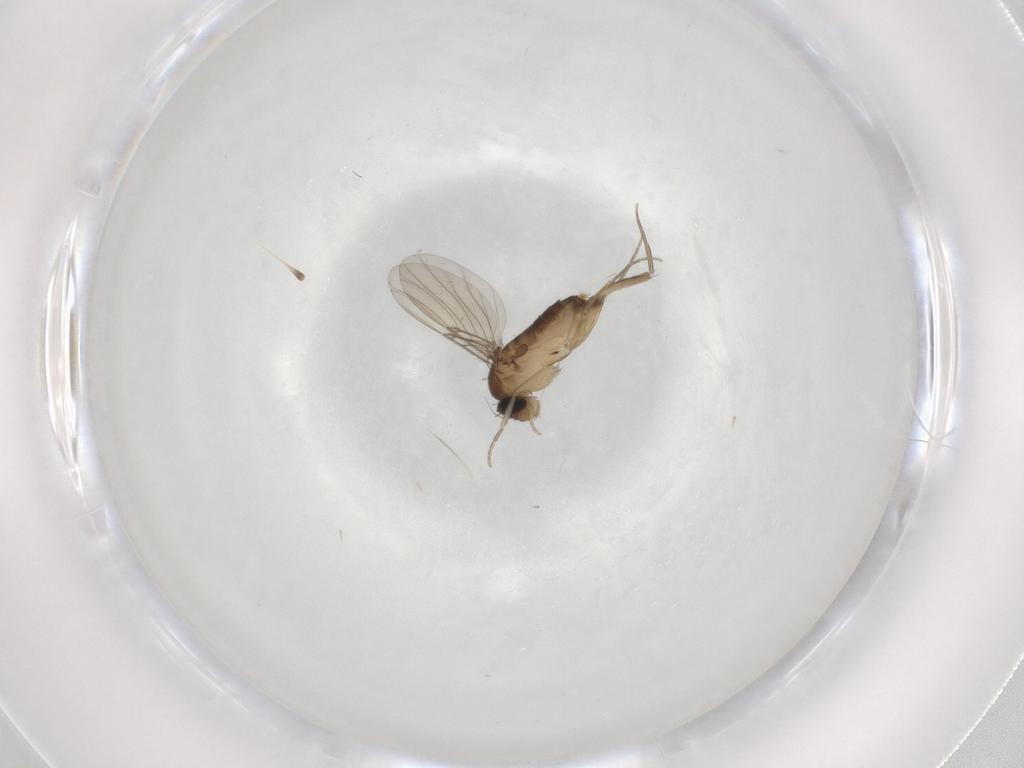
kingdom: Animalia
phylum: Arthropoda
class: Insecta
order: Diptera
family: Phoridae
